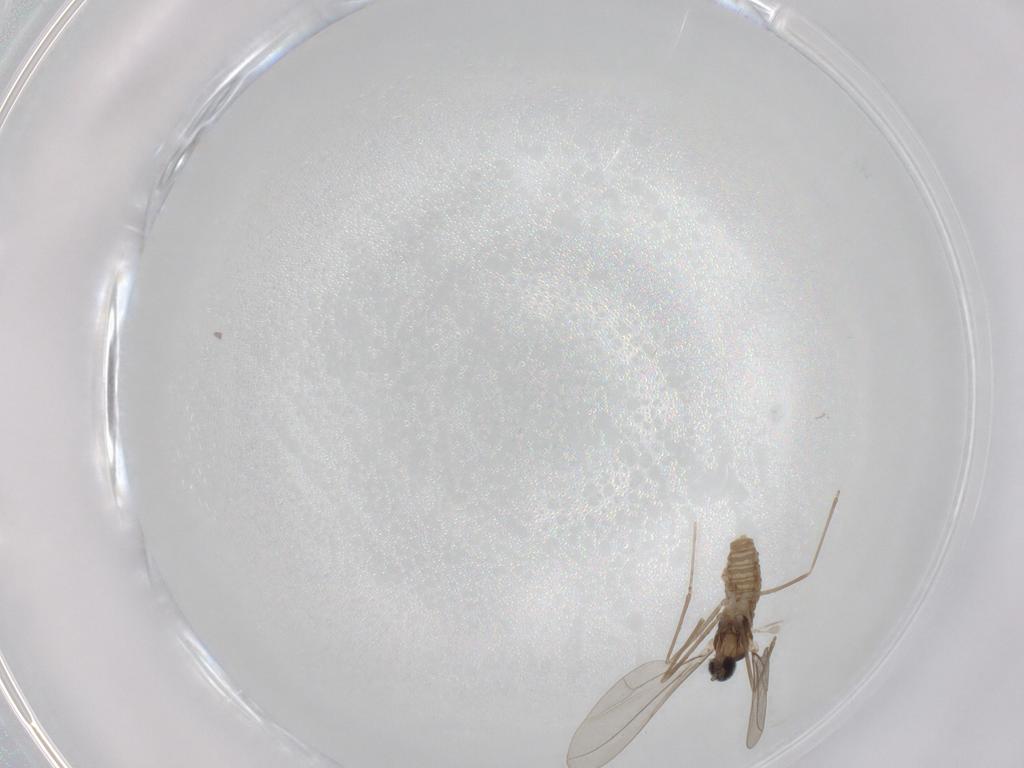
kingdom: Animalia
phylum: Arthropoda
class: Insecta
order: Diptera
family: Cecidomyiidae
